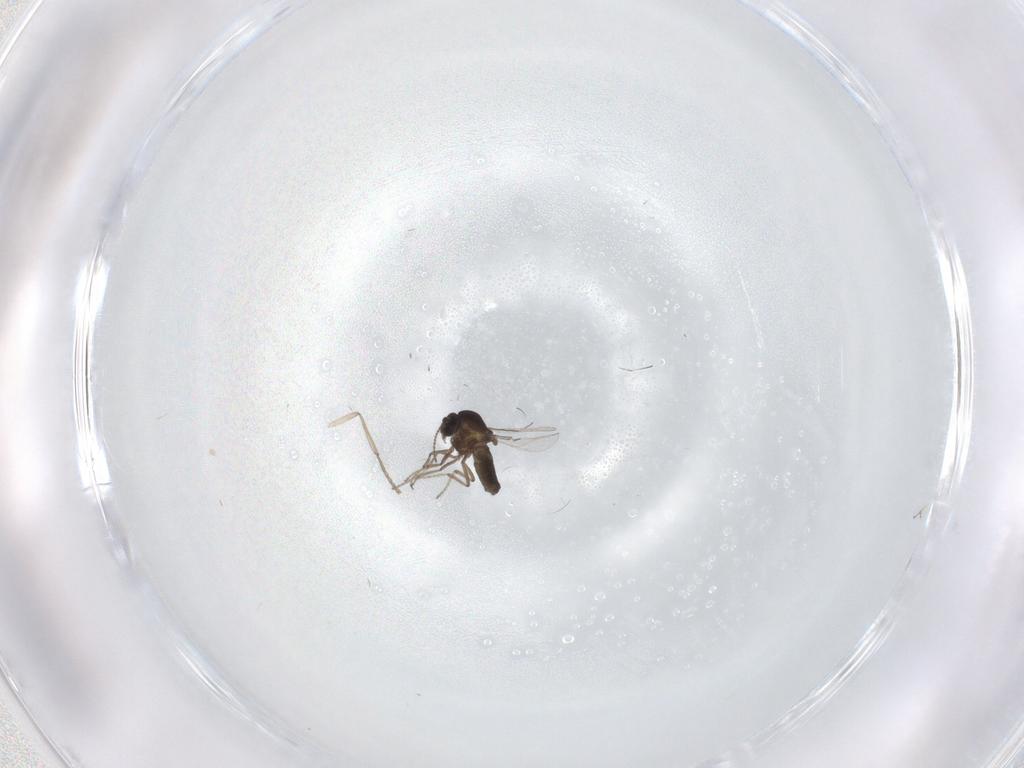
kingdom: Animalia
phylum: Arthropoda
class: Insecta
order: Diptera
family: Ceratopogonidae
